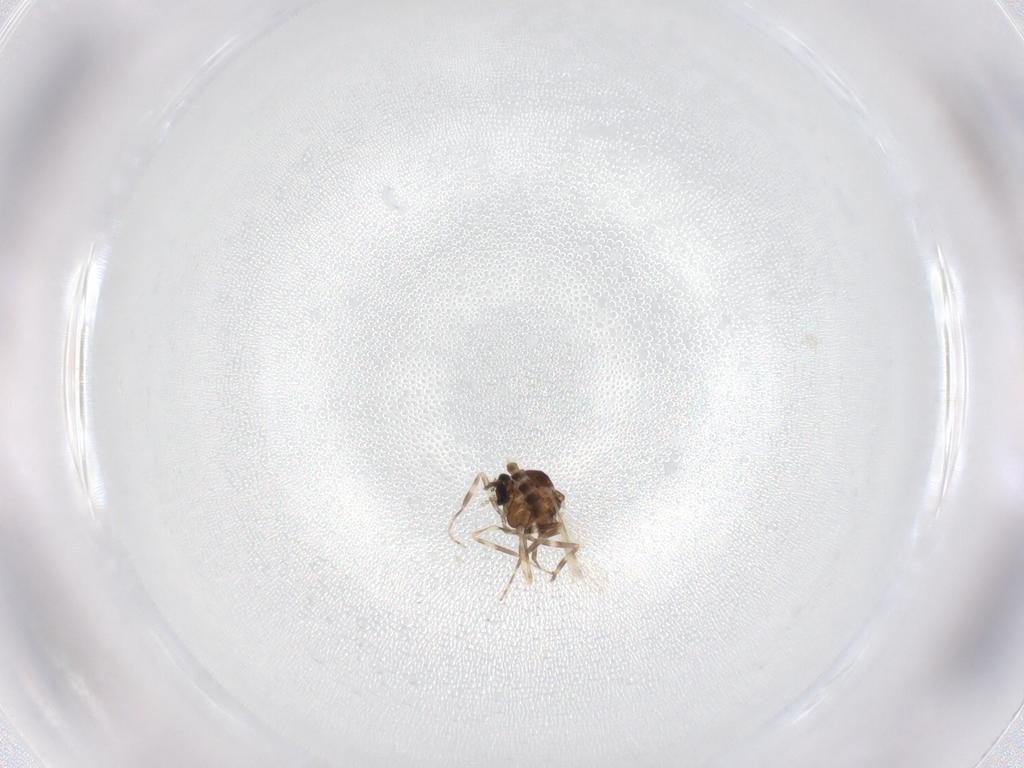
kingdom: Animalia
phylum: Arthropoda
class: Insecta
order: Diptera
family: Ceratopogonidae
